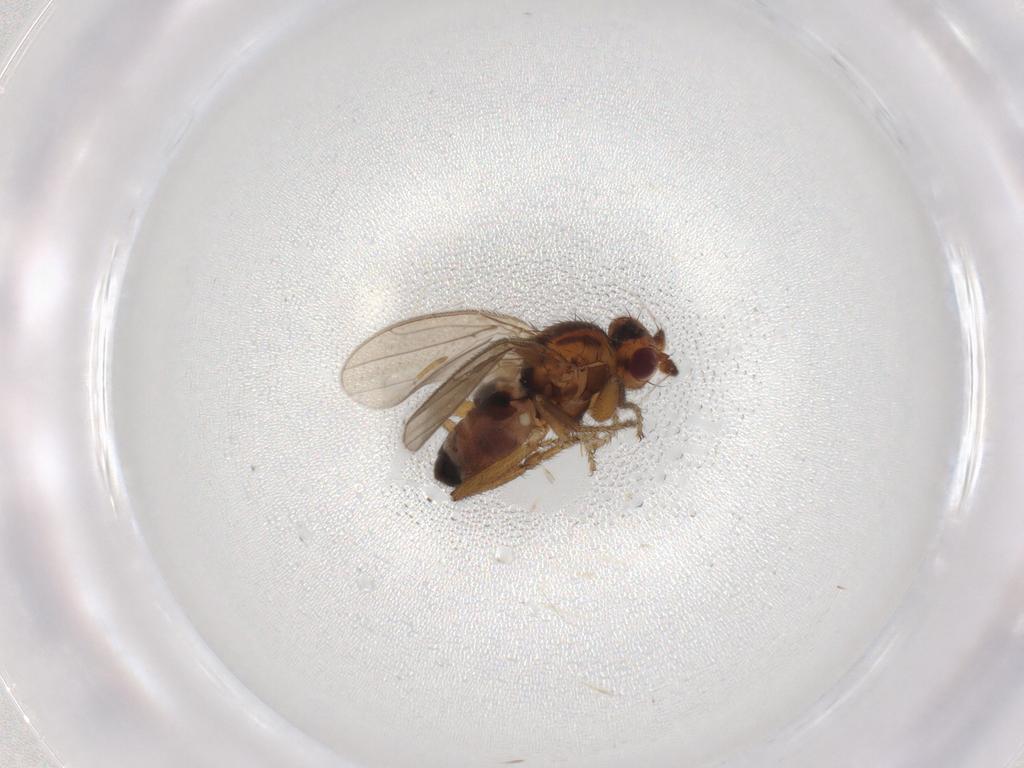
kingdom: Animalia
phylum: Arthropoda
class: Insecta
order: Diptera
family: Sphaeroceridae
